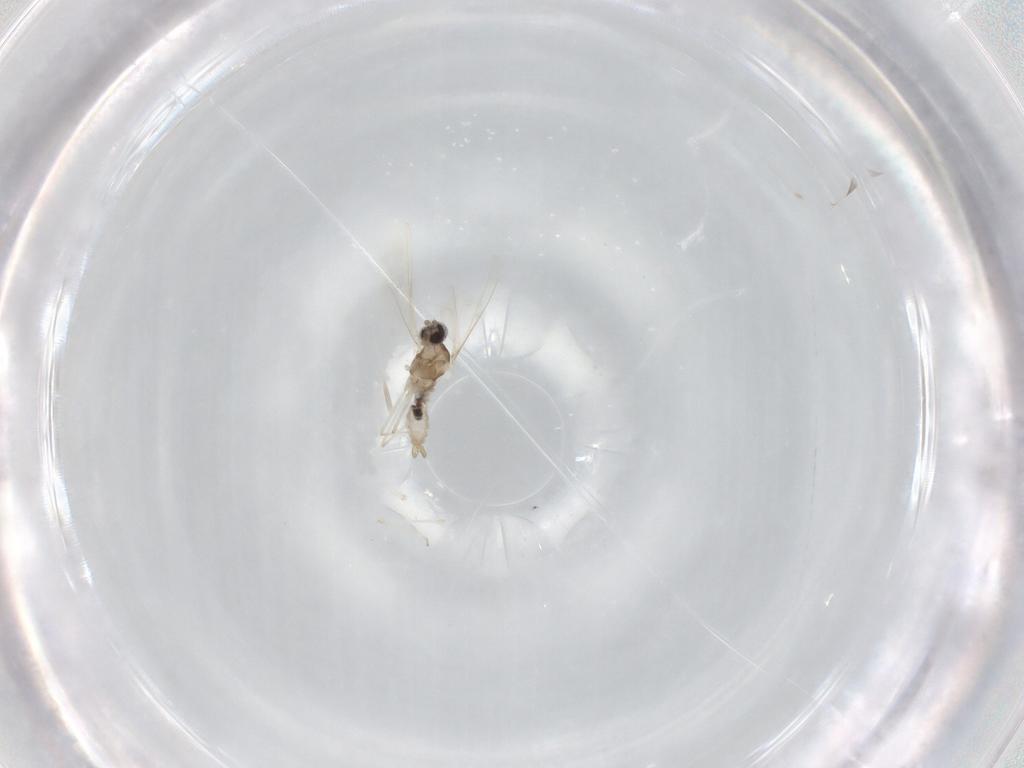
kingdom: Animalia
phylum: Arthropoda
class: Insecta
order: Diptera
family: Cecidomyiidae
